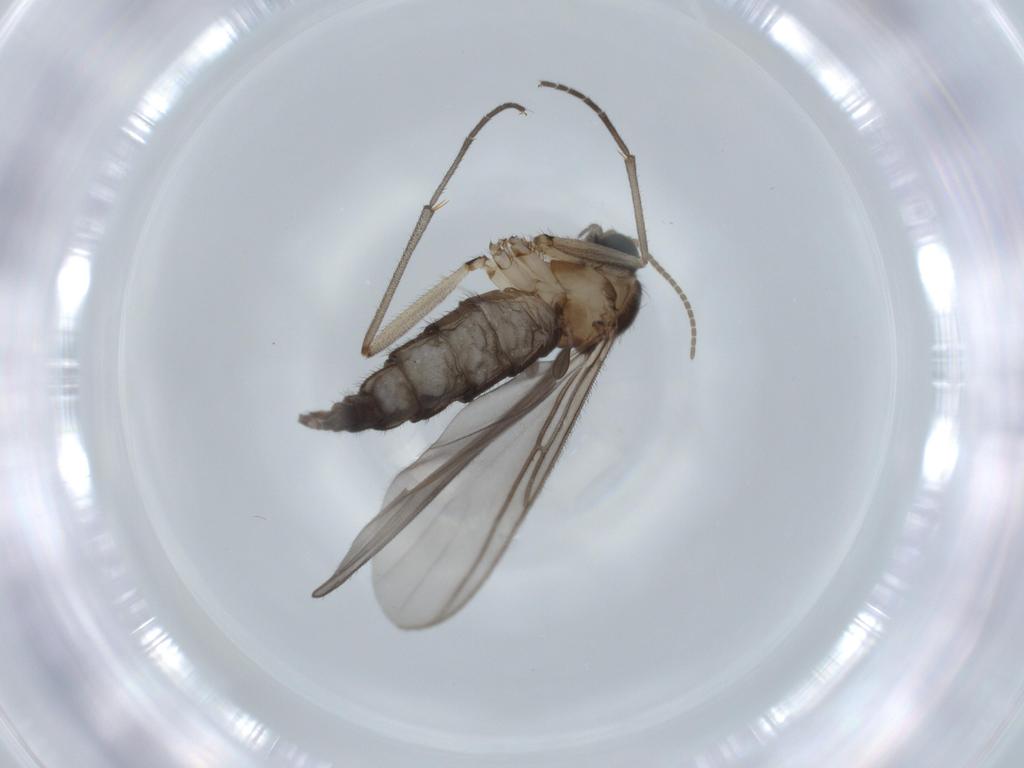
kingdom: Animalia
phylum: Arthropoda
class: Insecta
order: Diptera
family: Sciaridae
